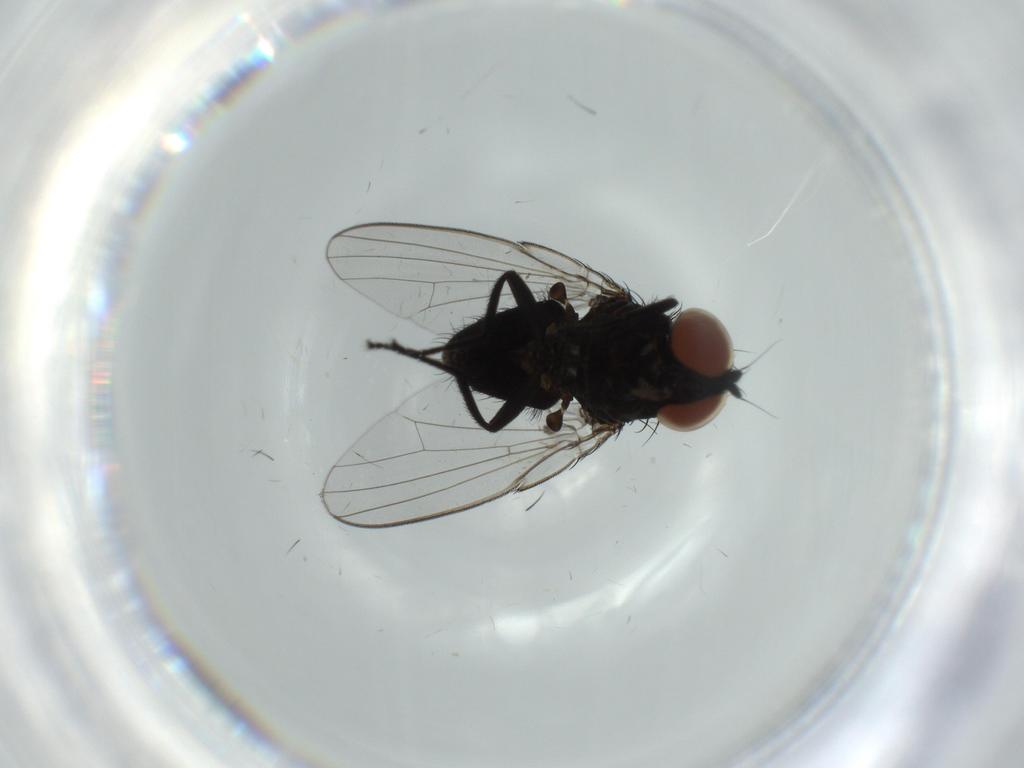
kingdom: Animalia
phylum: Arthropoda
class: Insecta
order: Diptera
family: Milichiidae
